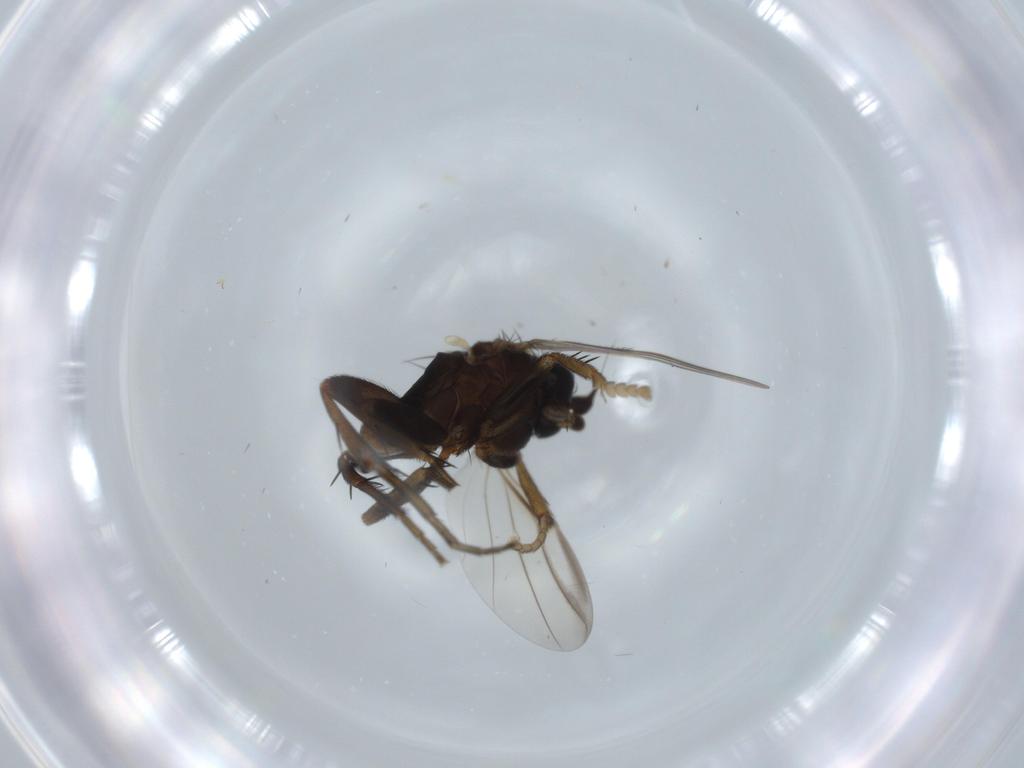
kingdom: Animalia
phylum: Arthropoda
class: Insecta
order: Diptera
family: Phoridae
